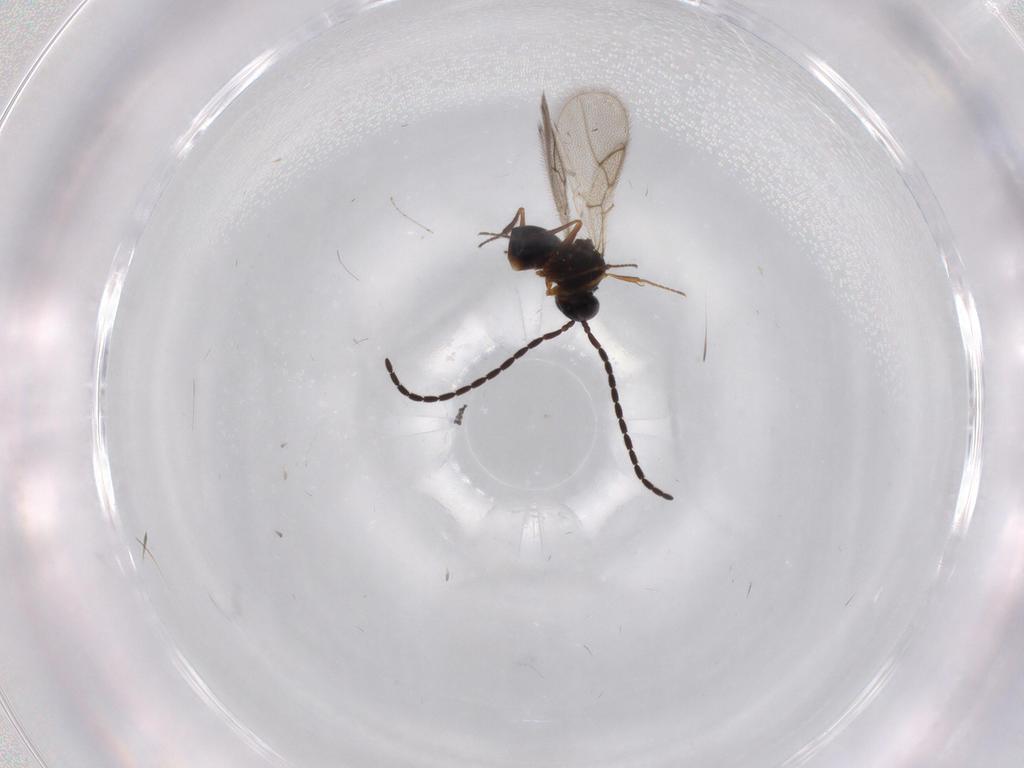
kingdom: Animalia
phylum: Arthropoda
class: Insecta
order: Hymenoptera
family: Figitidae
